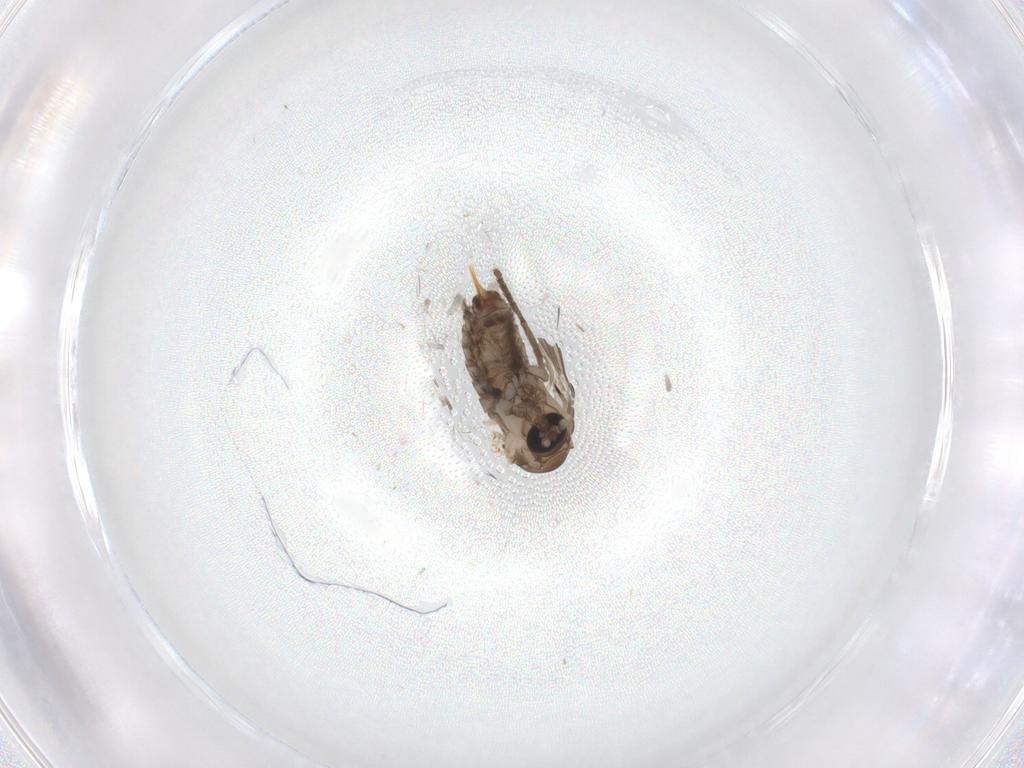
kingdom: Animalia
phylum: Arthropoda
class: Insecta
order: Diptera
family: Psychodidae
